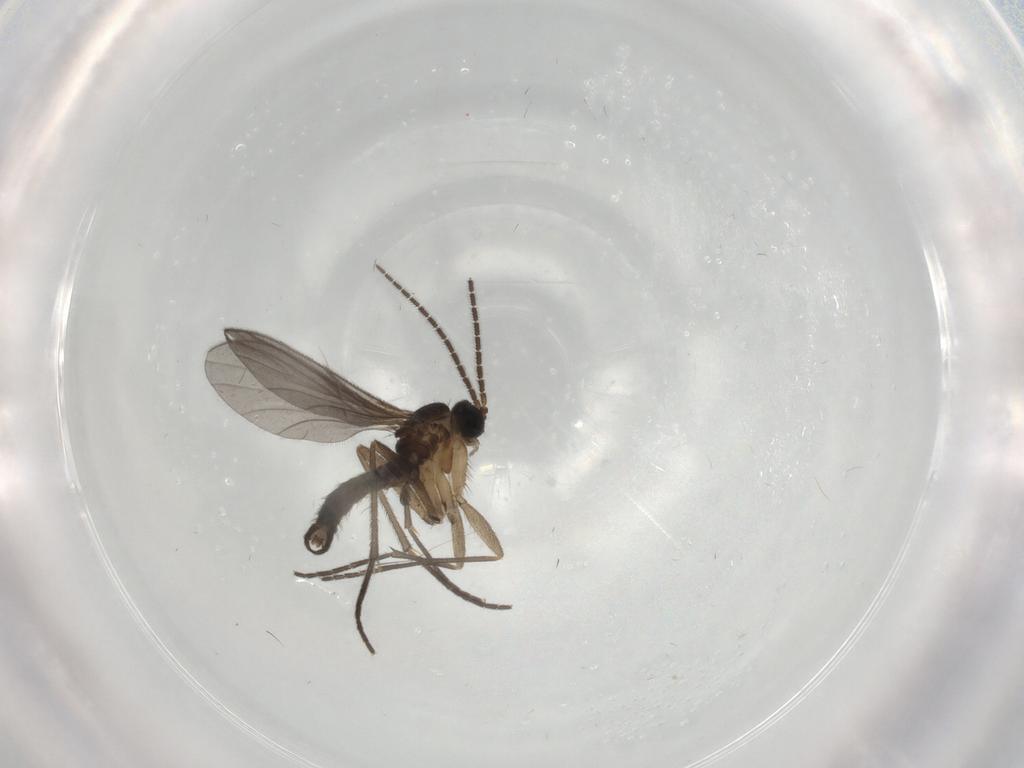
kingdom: Animalia
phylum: Arthropoda
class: Insecta
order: Diptera
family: Sciaridae
